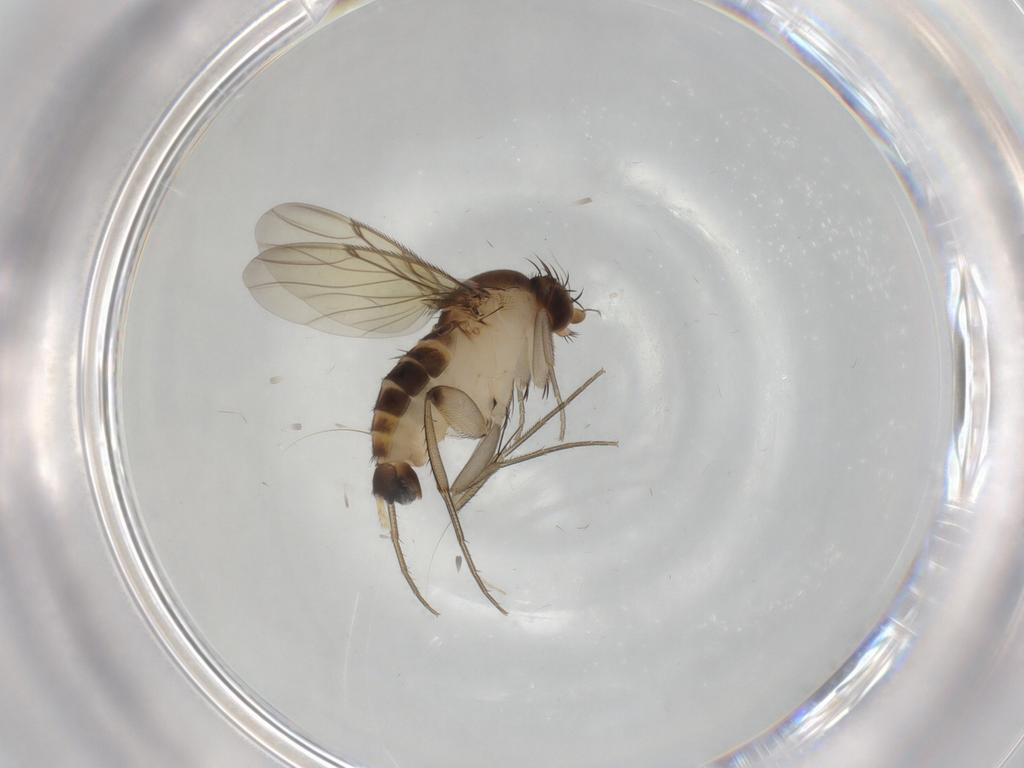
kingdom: Animalia
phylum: Arthropoda
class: Insecta
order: Diptera
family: Phoridae
